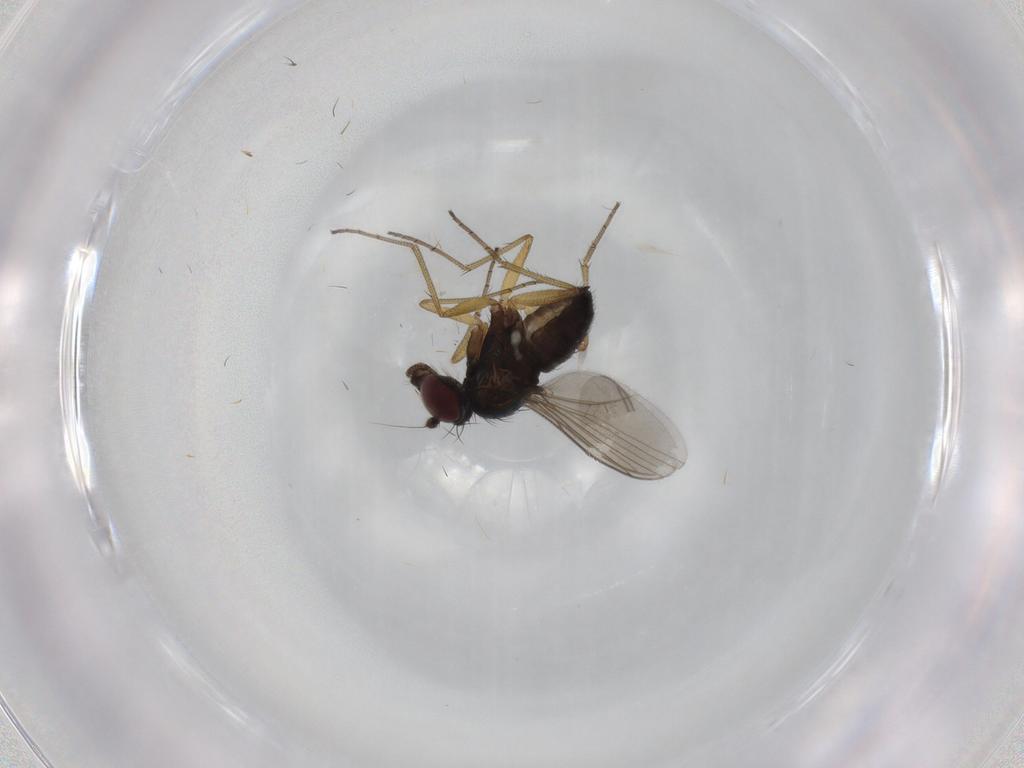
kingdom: Animalia
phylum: Arthropoda
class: Insecta
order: Diptera
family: Dolichopodidae
